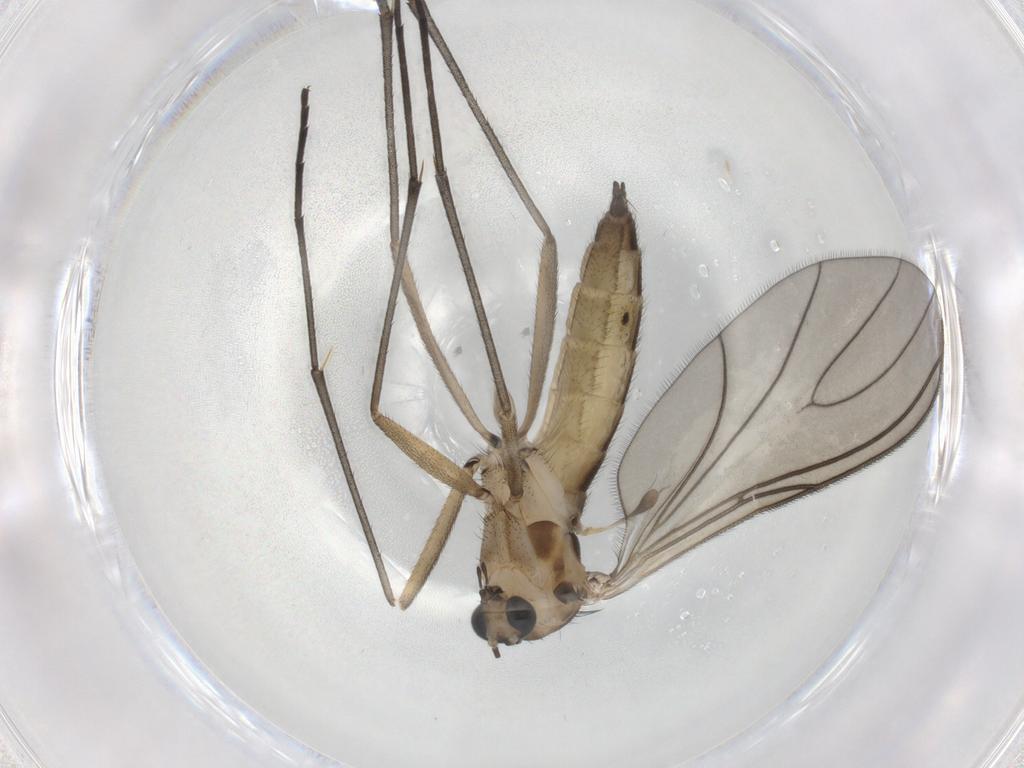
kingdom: Animalia
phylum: Arthropoda
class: Insecta
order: Diptera
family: Sciaridae
